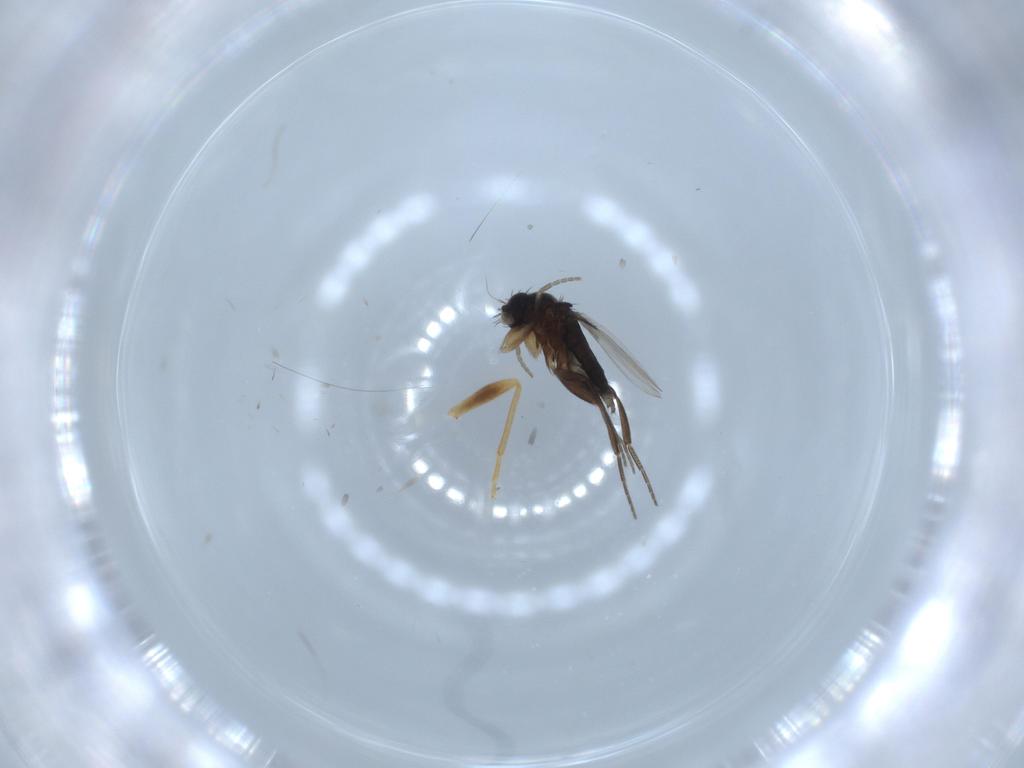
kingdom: Animalia
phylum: Arthropoda
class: Insecta
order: Diptera
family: Phoridae
